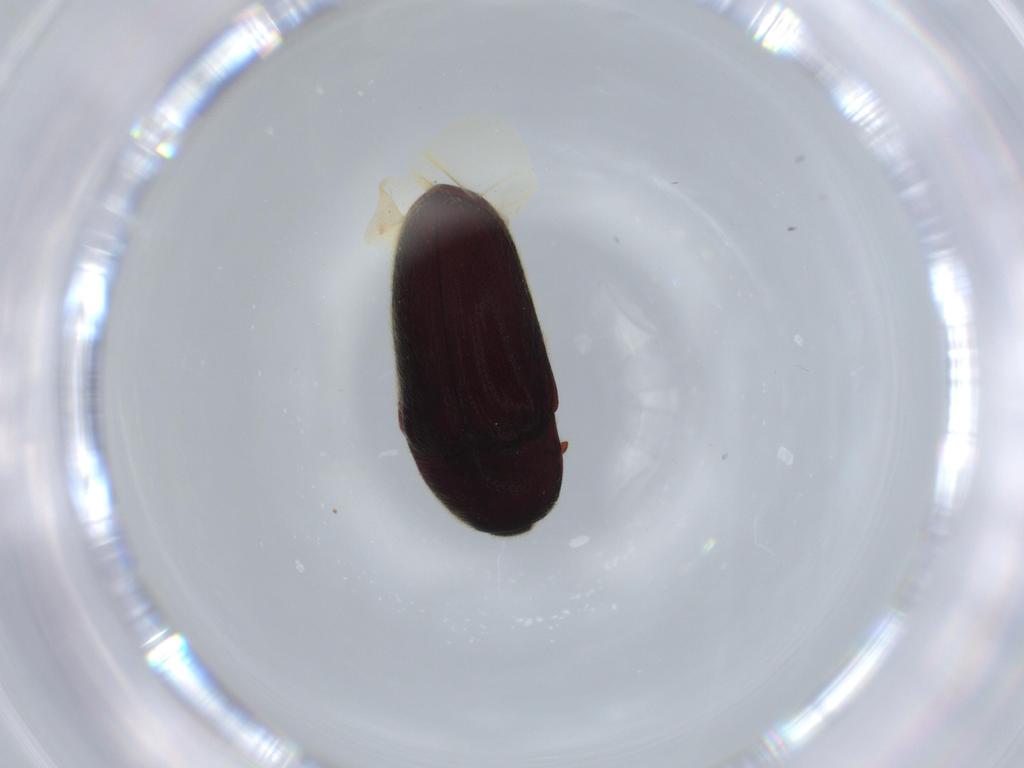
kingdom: Animalia
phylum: Arthropoda
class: Insecta
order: Coleoptera
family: Throscidae
